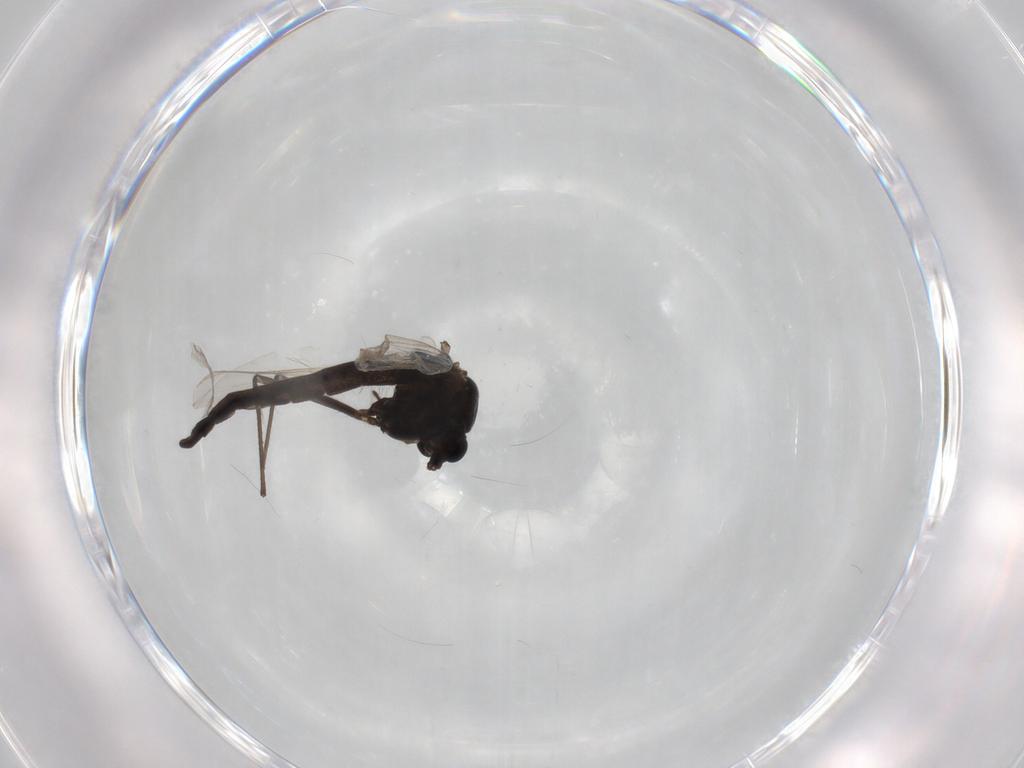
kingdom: Animalia
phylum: Arthropoda
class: Insecta
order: Diptera
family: Chironomidae
